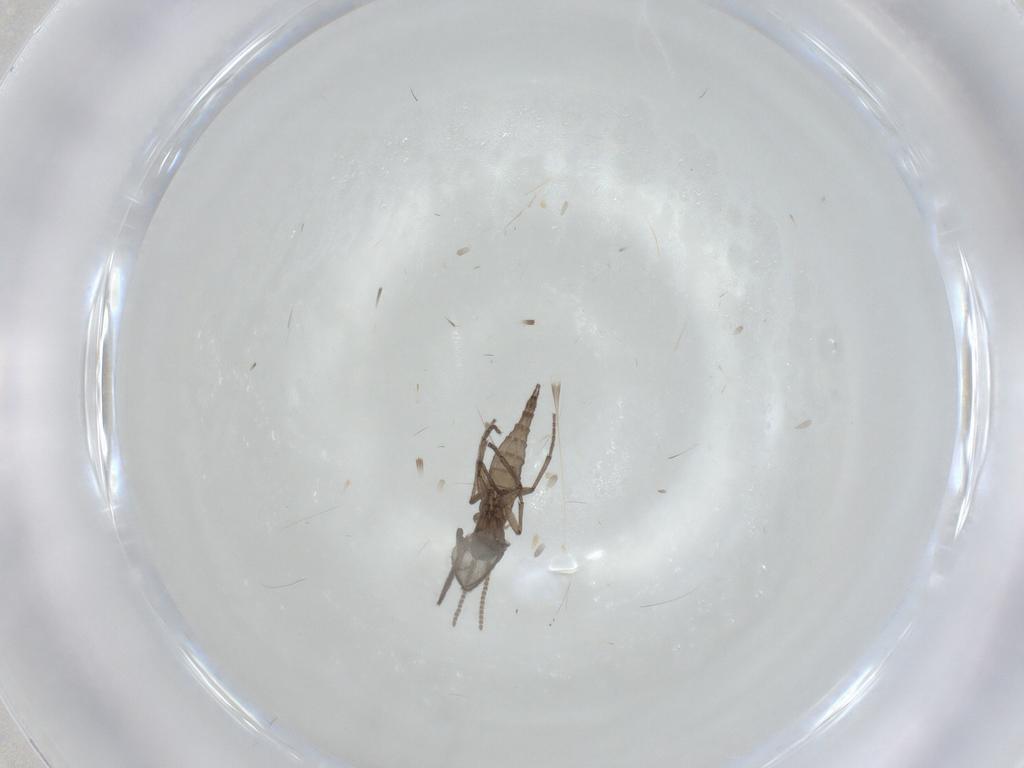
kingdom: Animalia
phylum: Arthropoda
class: Insecta
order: Diptera
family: Sciaridae
